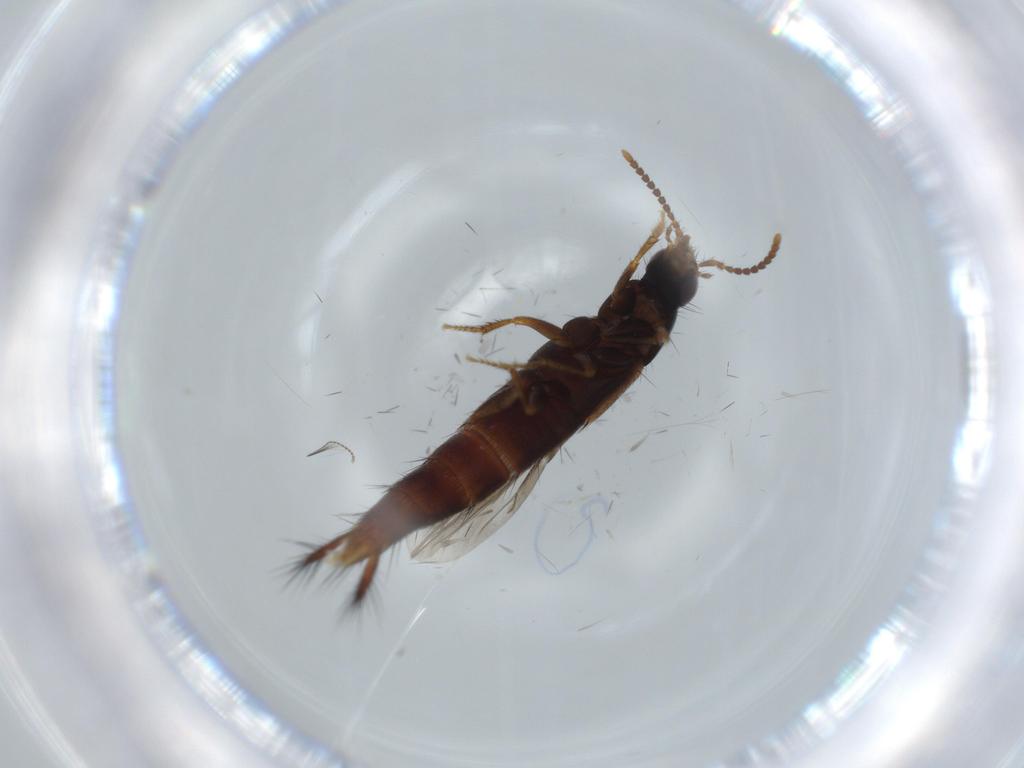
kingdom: Animalia
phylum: Arthropoda
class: Insecta
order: Coleoptera
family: Staphylinidae
